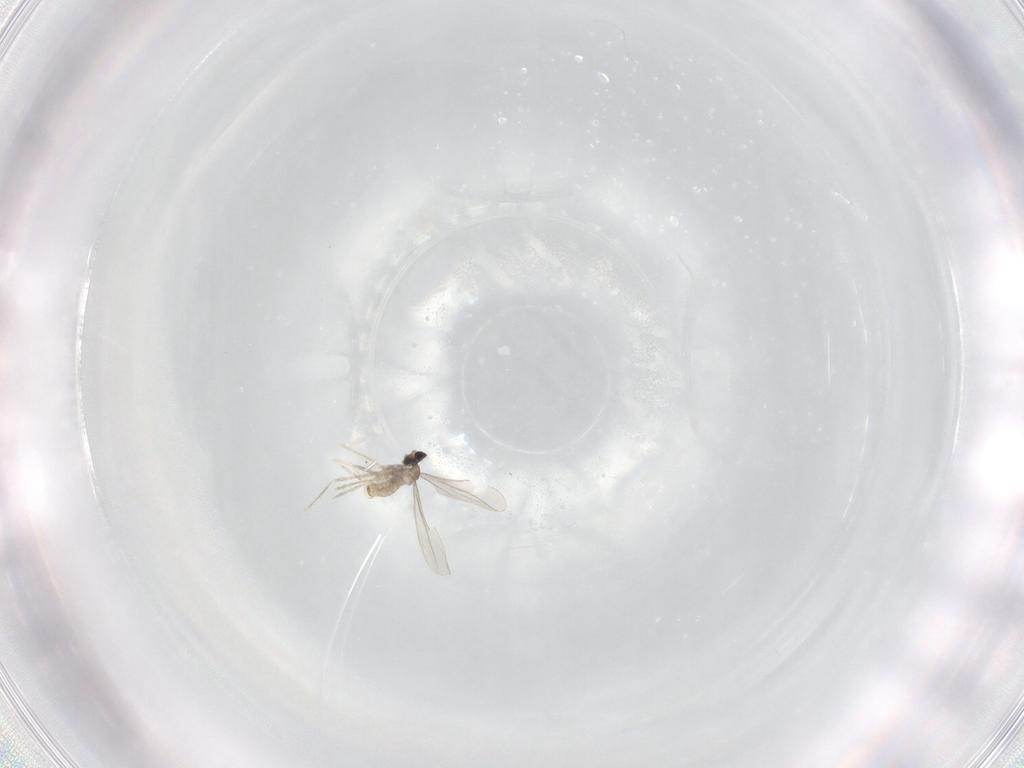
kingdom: Animalia
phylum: Arthropoda
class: Insecta
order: Diptera
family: Cecidomyiidae
